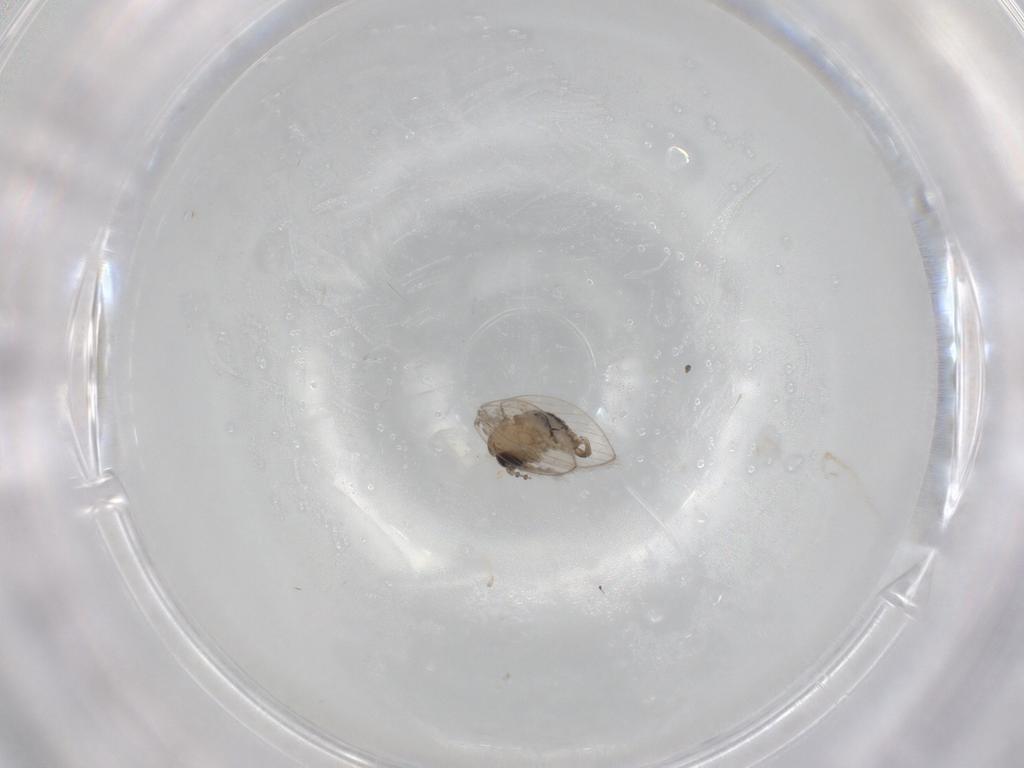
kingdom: Animalia
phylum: Arthropoda
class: Insecta
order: Diptera
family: Psychodidae
